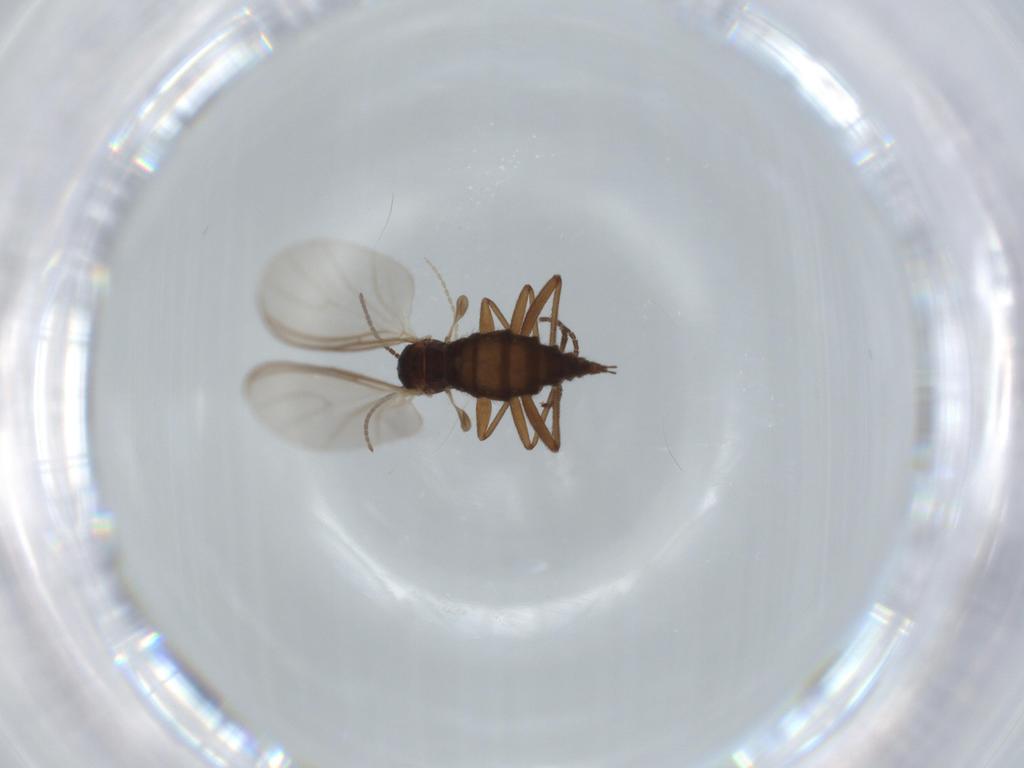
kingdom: Animalia
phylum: Arthropoda
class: Insecta
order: Diptera
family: Sciaridae
